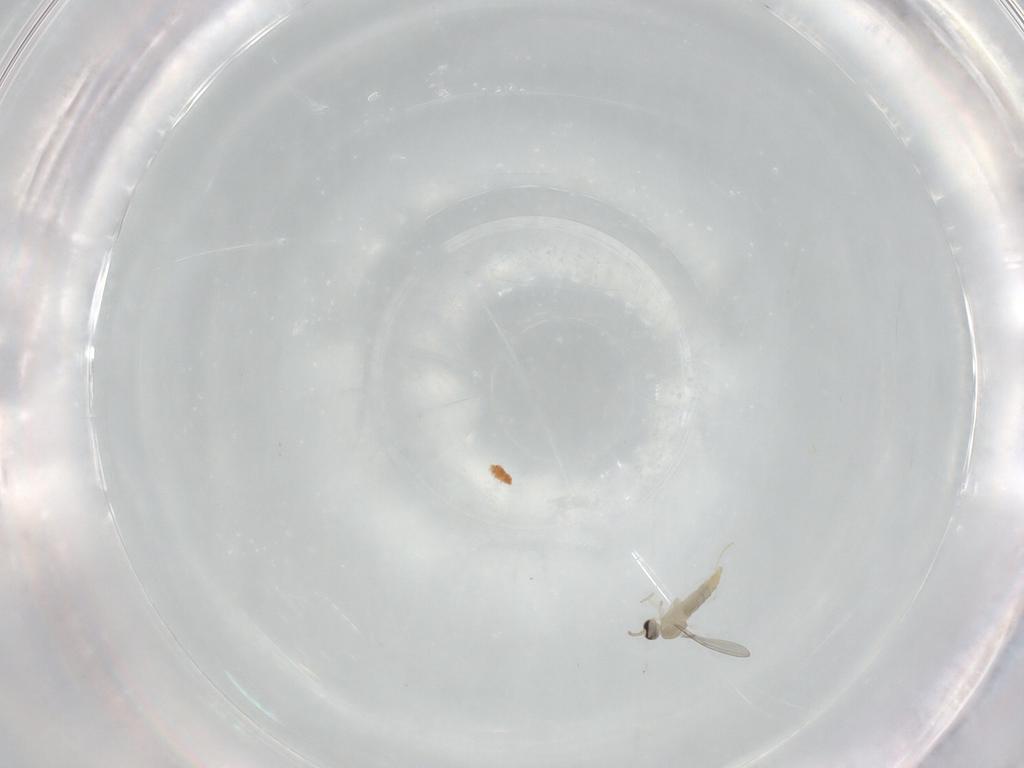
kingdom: Animalia
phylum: Arthropoda
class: Insecta
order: Diptera
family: Cecidomyiidae
